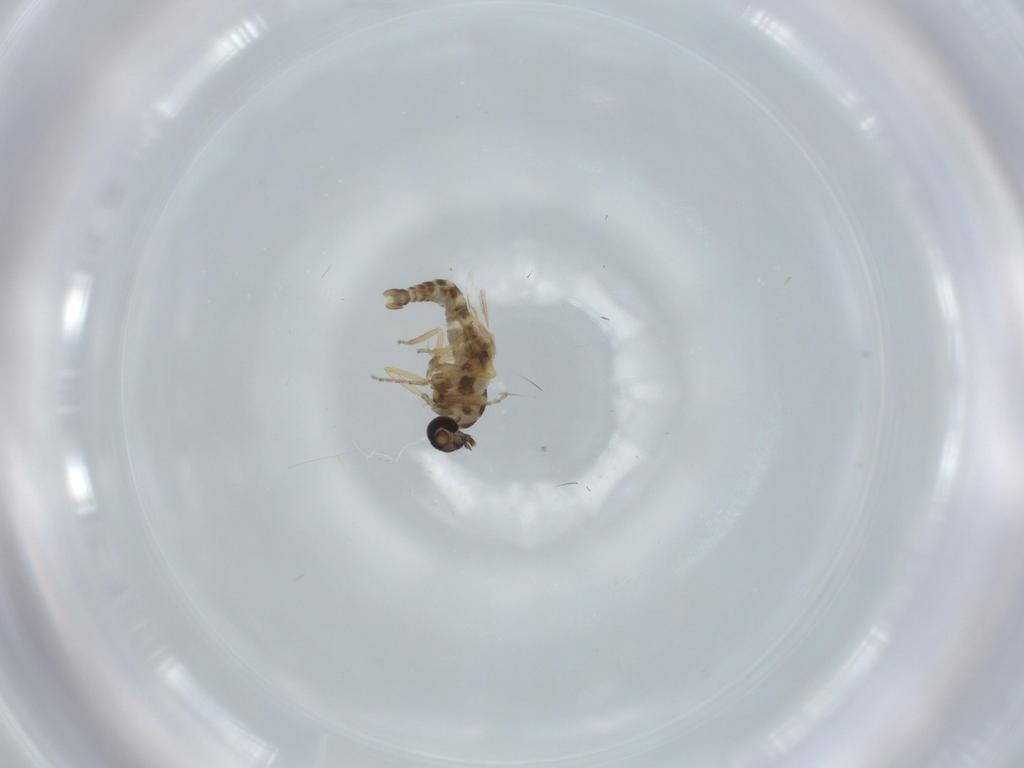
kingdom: Animalia
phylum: Arthropoda
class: Insecta
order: Diptera
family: Ceratopogonidae
